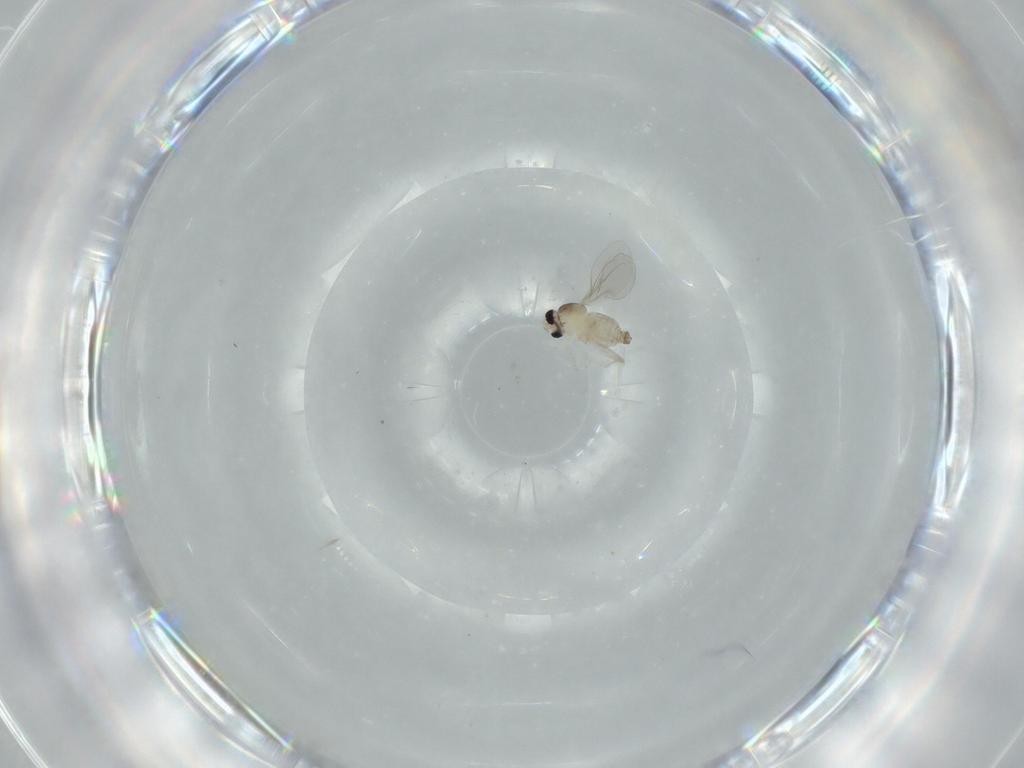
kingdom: Animalia
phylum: Arthropoda
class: Insecta
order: Diptera
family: Cecidomyiidae
